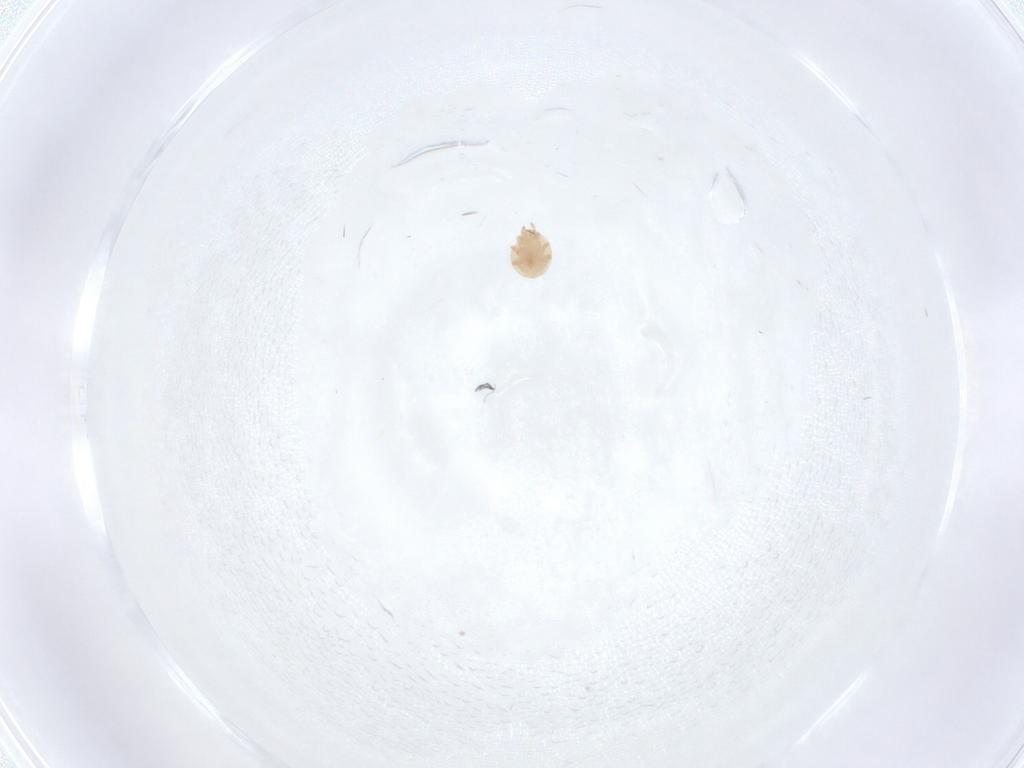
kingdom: Animalia
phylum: Arthropoda
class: Arachnida
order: Mesostigmata
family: Trematuridae
